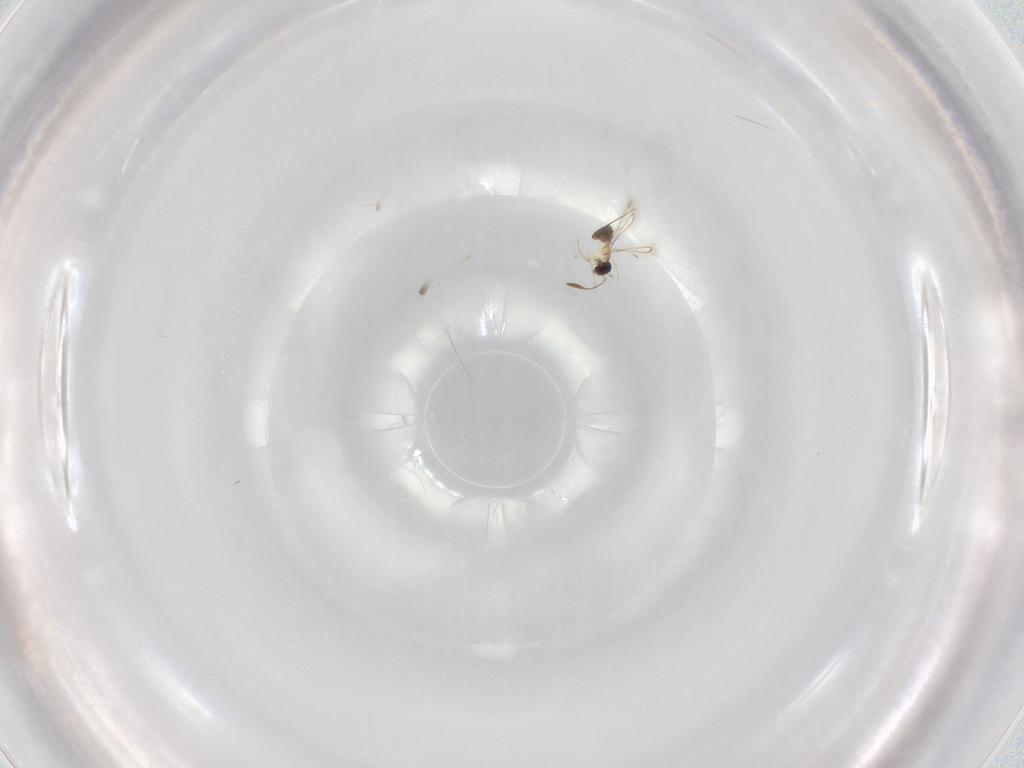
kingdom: Animalia
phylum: Arthropoda
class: Insecta
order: Hymenoptera
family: Mymaridae
